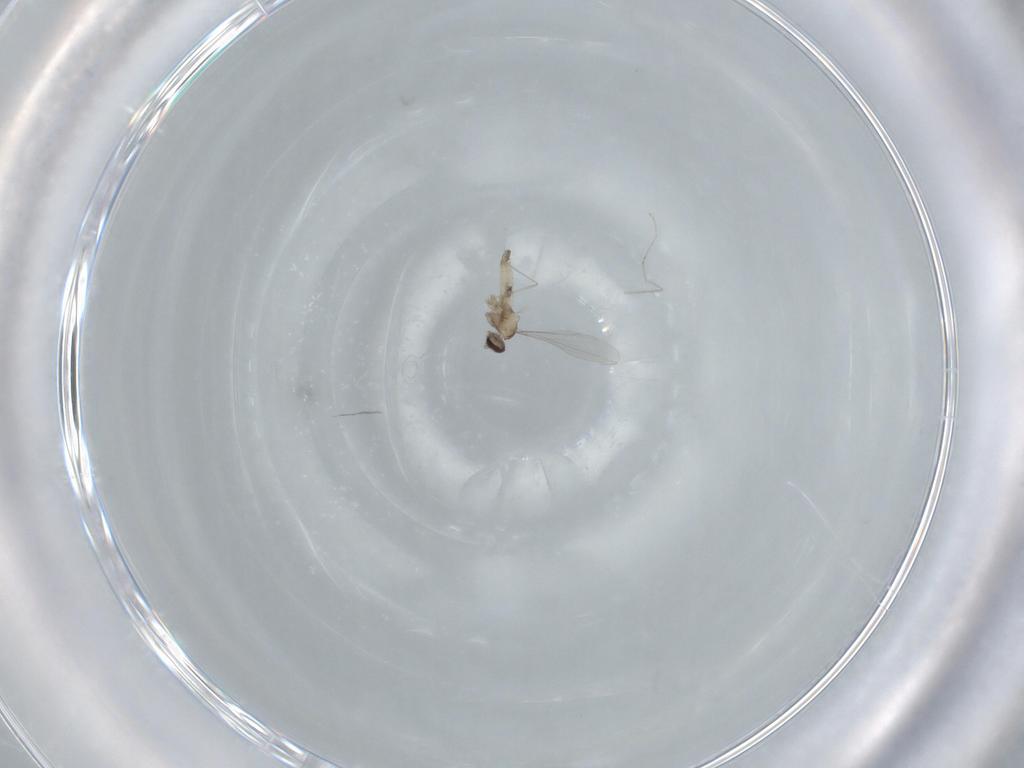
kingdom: Animalia
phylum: Arthropoda
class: Insecta
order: Diptera
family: Cecidomyiidae
